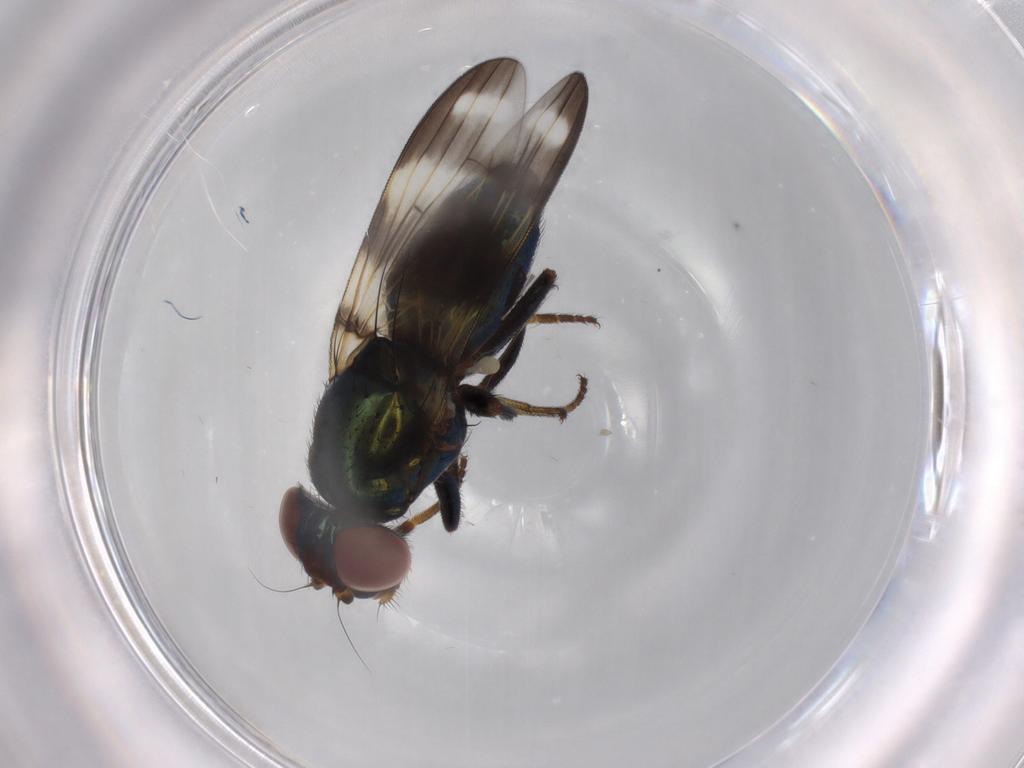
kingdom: Animalia
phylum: Arthropoda
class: Insecta
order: Diptera
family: Ulidiidae
